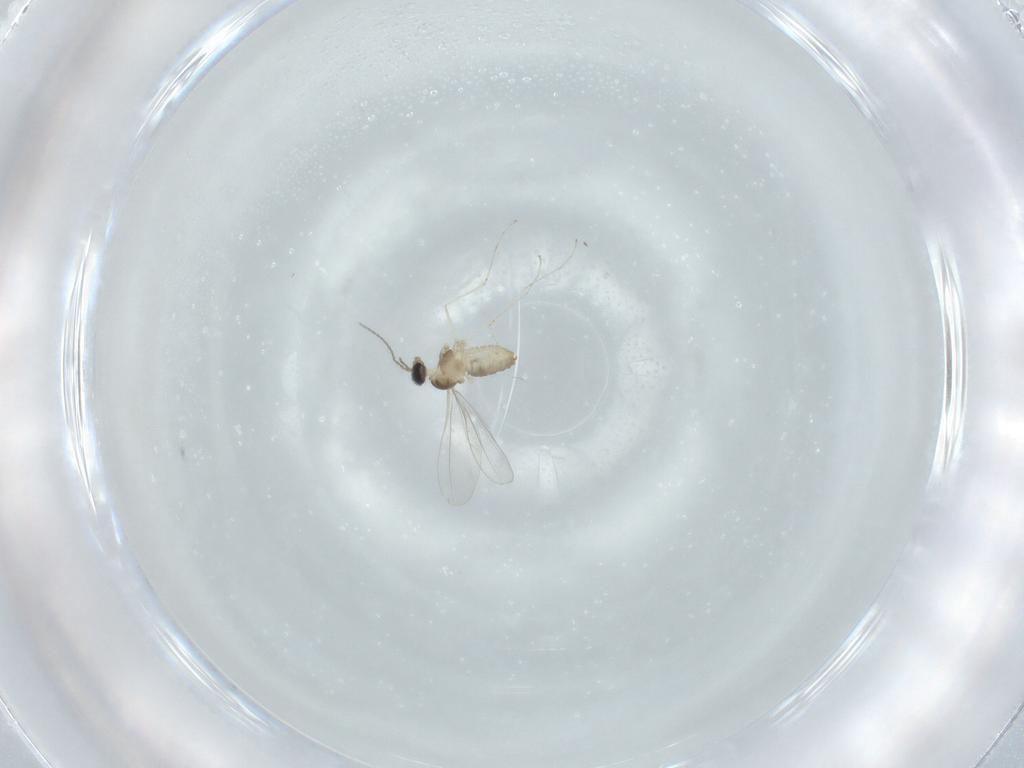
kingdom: Animalia
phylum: Arthropoda
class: Insecta
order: Diptera
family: Cecidomyiidae
